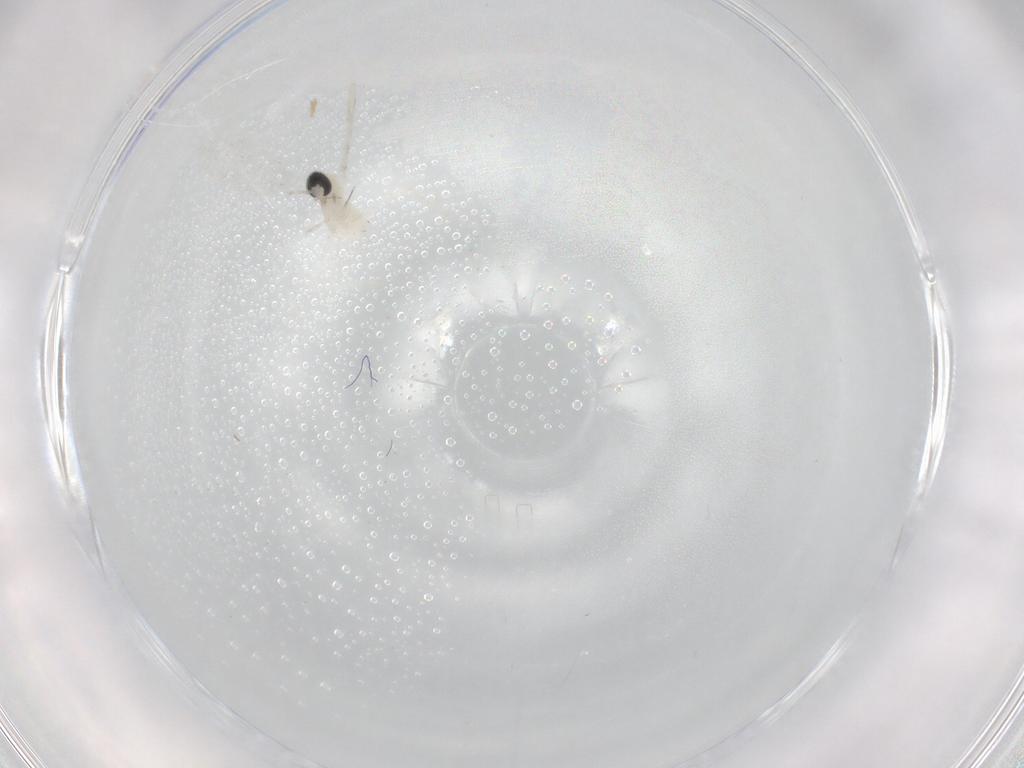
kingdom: Animalia
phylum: Arthropoda
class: Insecta
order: Diptera
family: Cecidomyiidae
